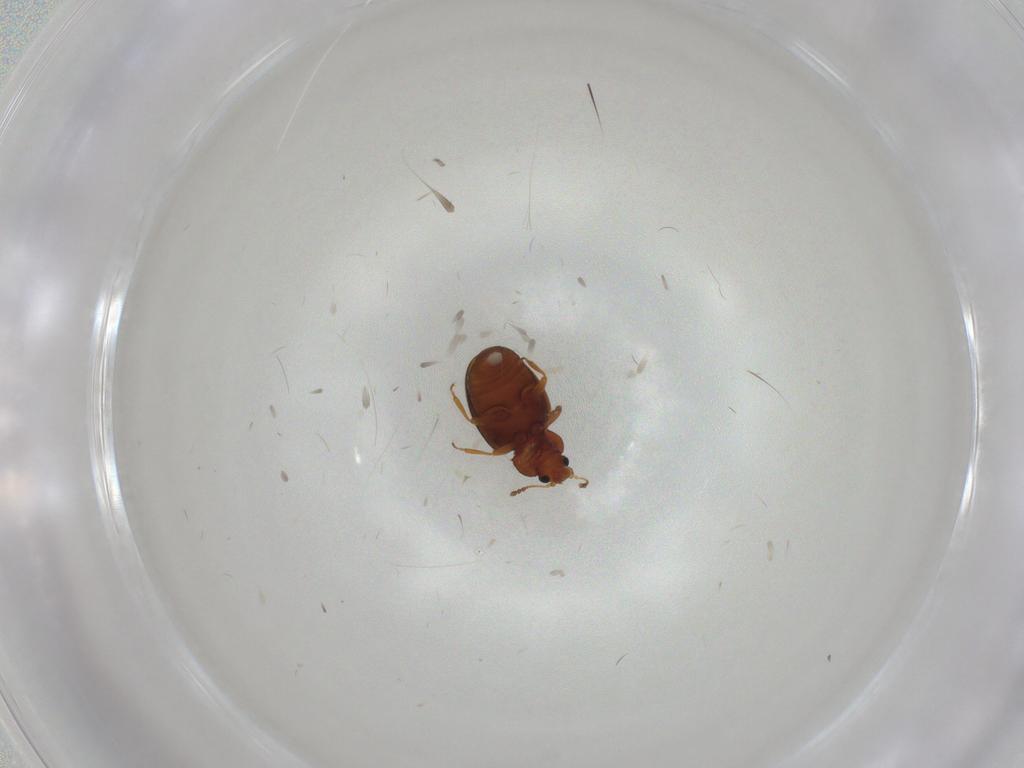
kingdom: Animalia
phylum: Arthropoda
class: Insecta
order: Coleoptera
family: Latridiidae
